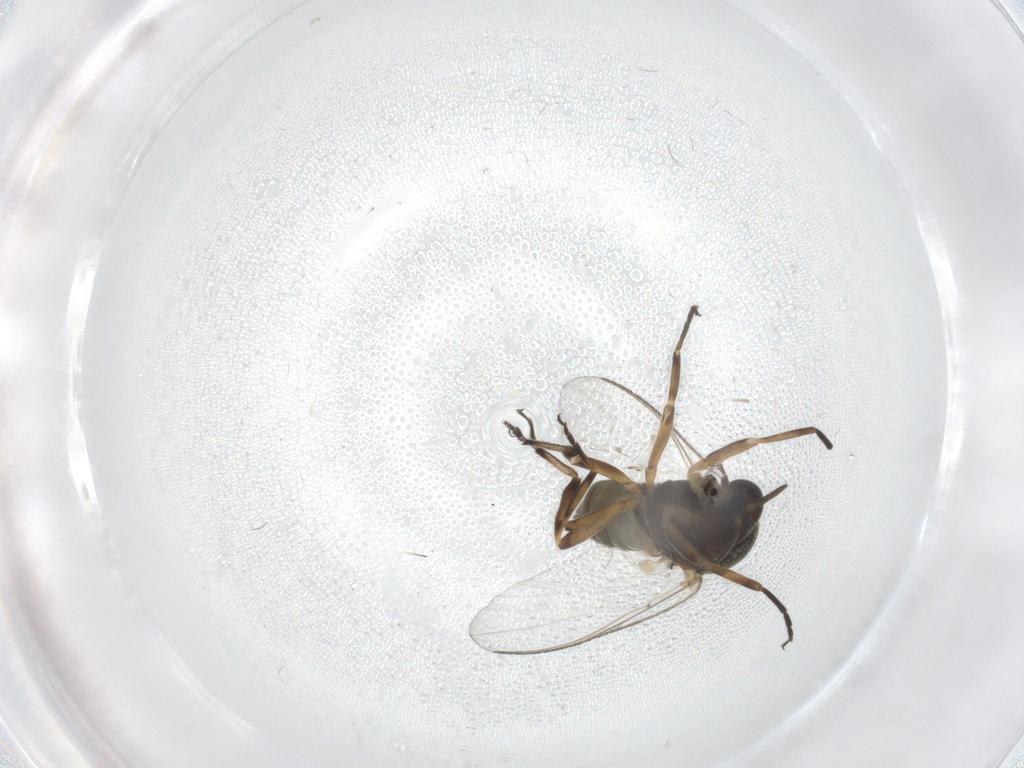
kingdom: Animalia
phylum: Arthropoda
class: Insecta
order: Diptera
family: Simuliidae
